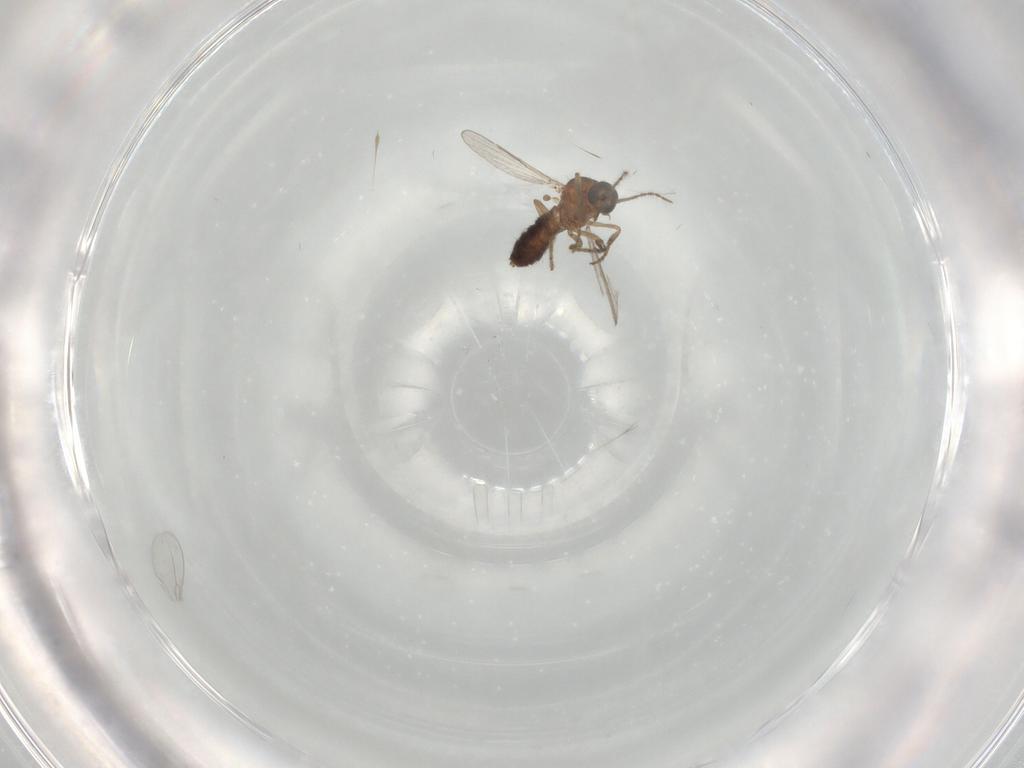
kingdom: Animalia
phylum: Arthropoda
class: Insecta
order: Diptera
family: Ceratopogonidae
